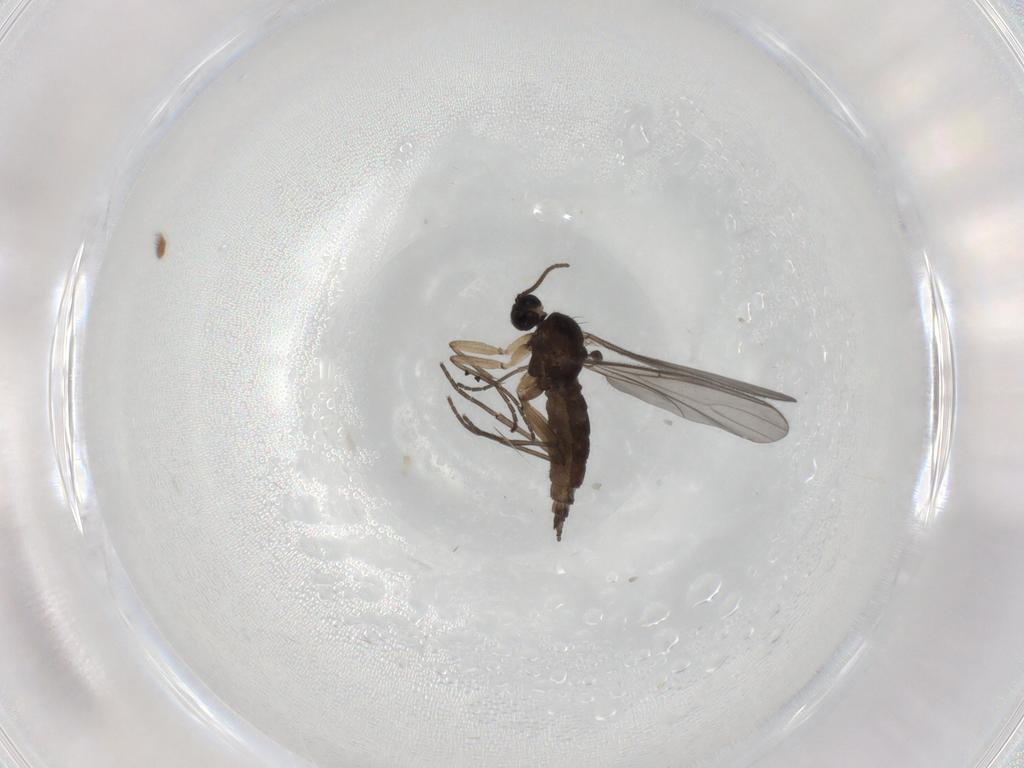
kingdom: Animalia
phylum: Arthropoda
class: Insecta
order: Diptera
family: Sciaridae
